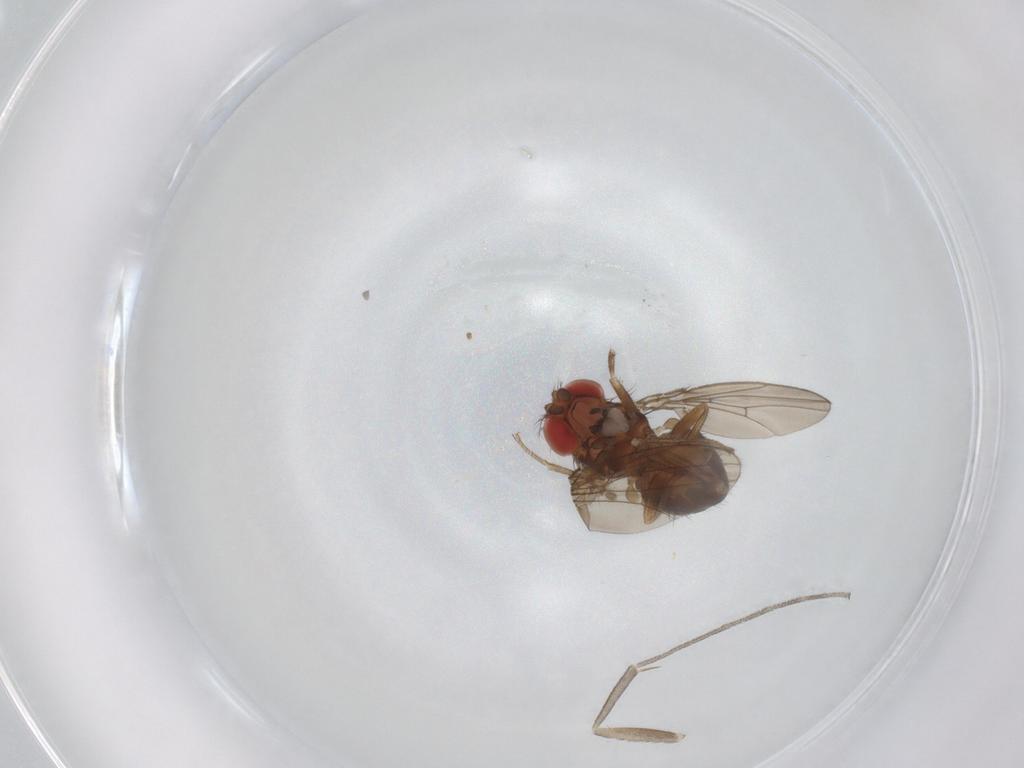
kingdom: Animalia
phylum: Arthropoda
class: Insecta
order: Diptera
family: Drosophilidae
